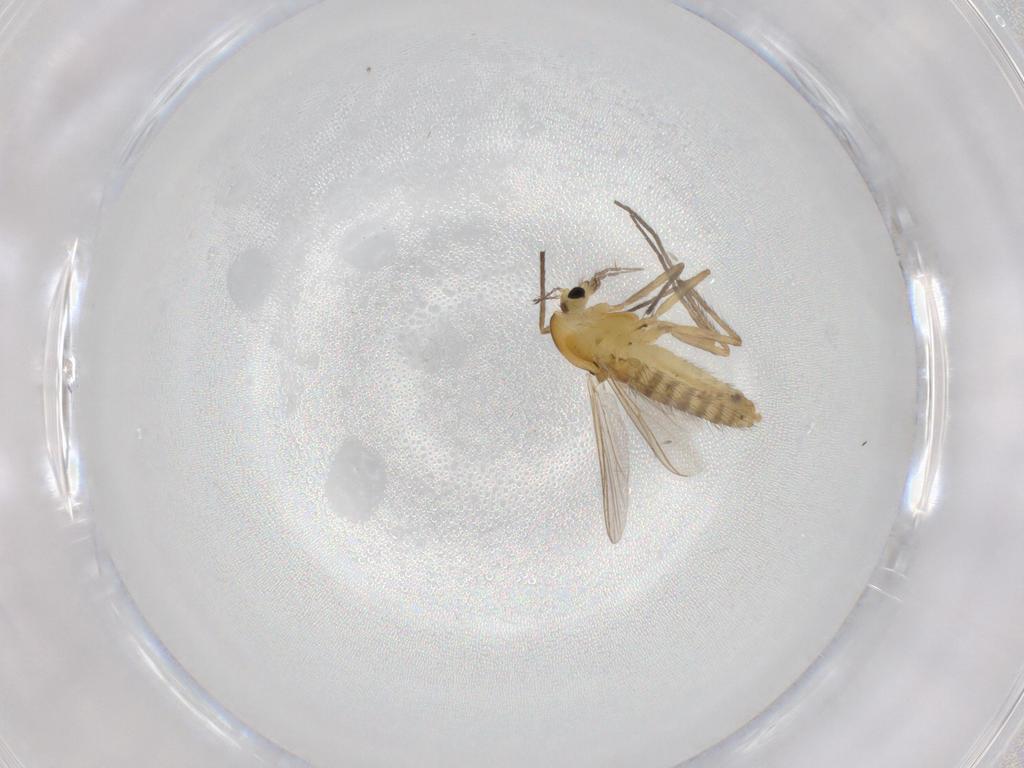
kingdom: Animalia
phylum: Arthropoda
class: Insecta
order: Diptera
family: Chironomidae
